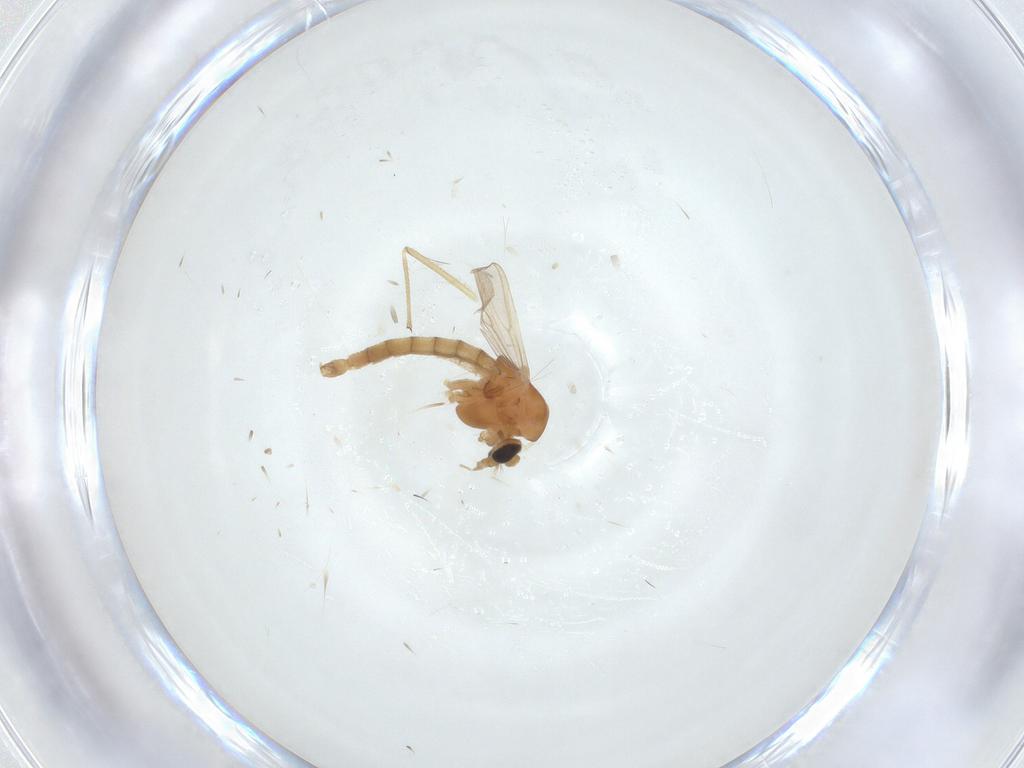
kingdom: Animalia
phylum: Arthropoda
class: Insecta
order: Diptera
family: Chironomidae
